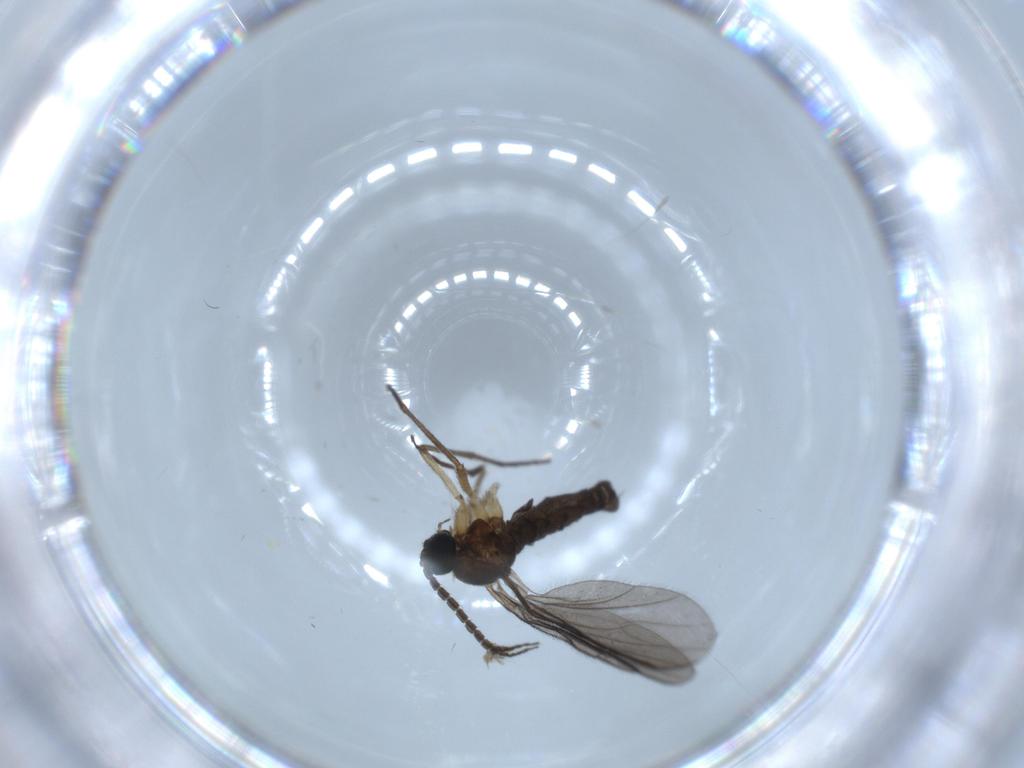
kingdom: Animalia
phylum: Arthropoda
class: Insecta
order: Diptera
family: Sciaridae
